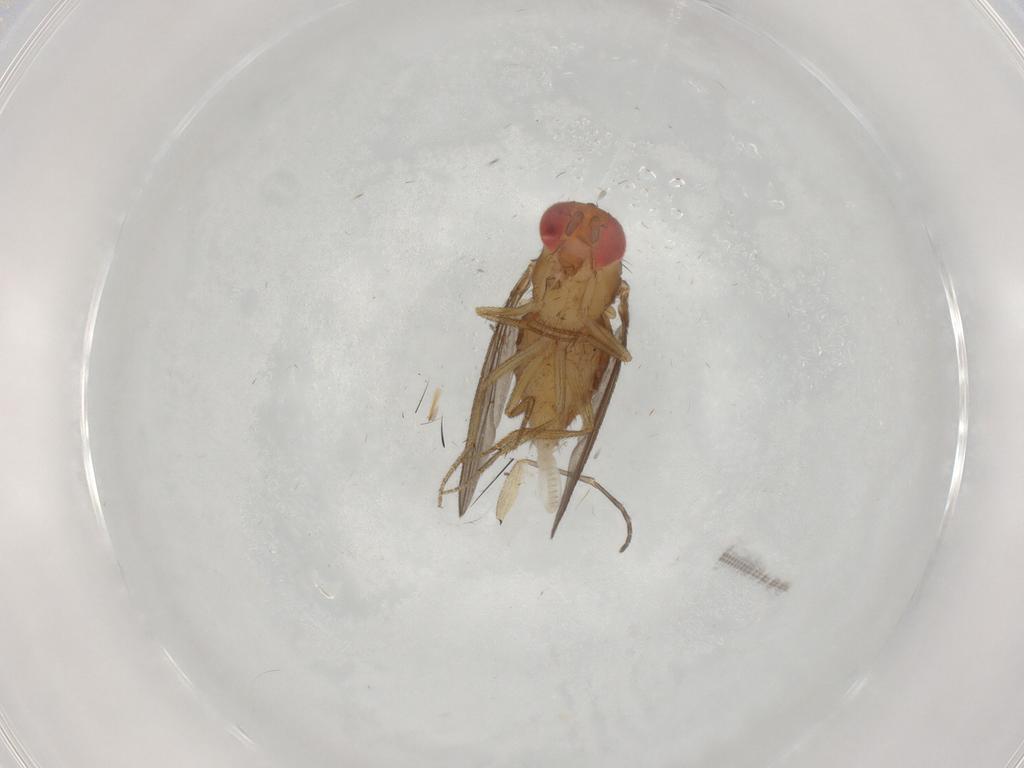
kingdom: Animalia
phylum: Arthropoda
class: Insecta
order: Diptera
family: Drosophilidae
